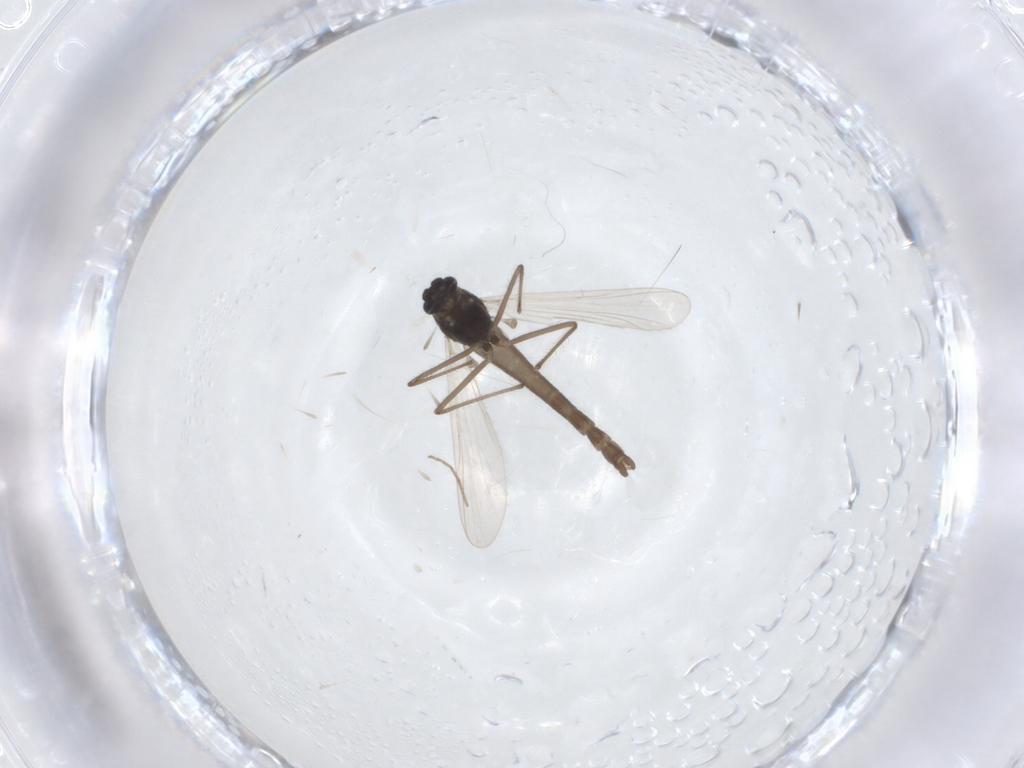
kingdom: Animalia
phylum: Arthropoda
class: Insecta
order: Diptera
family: Chironomidae
